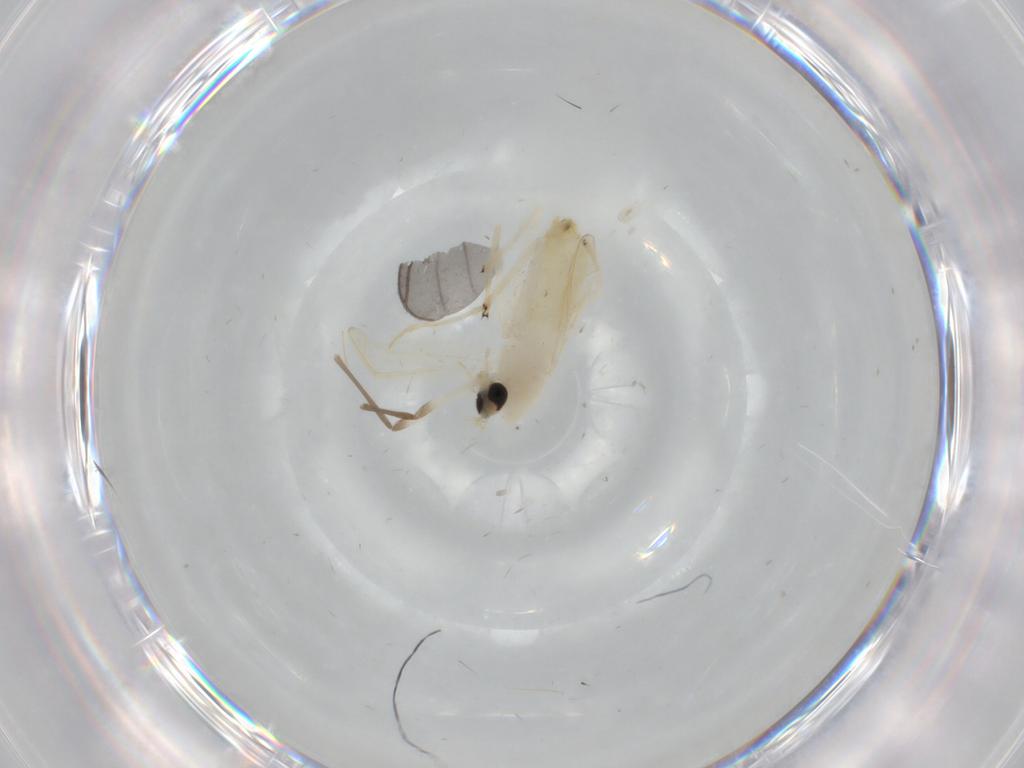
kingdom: Animalia
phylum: Arthropoda
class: Insecta
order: Diptera
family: Chironomidae
